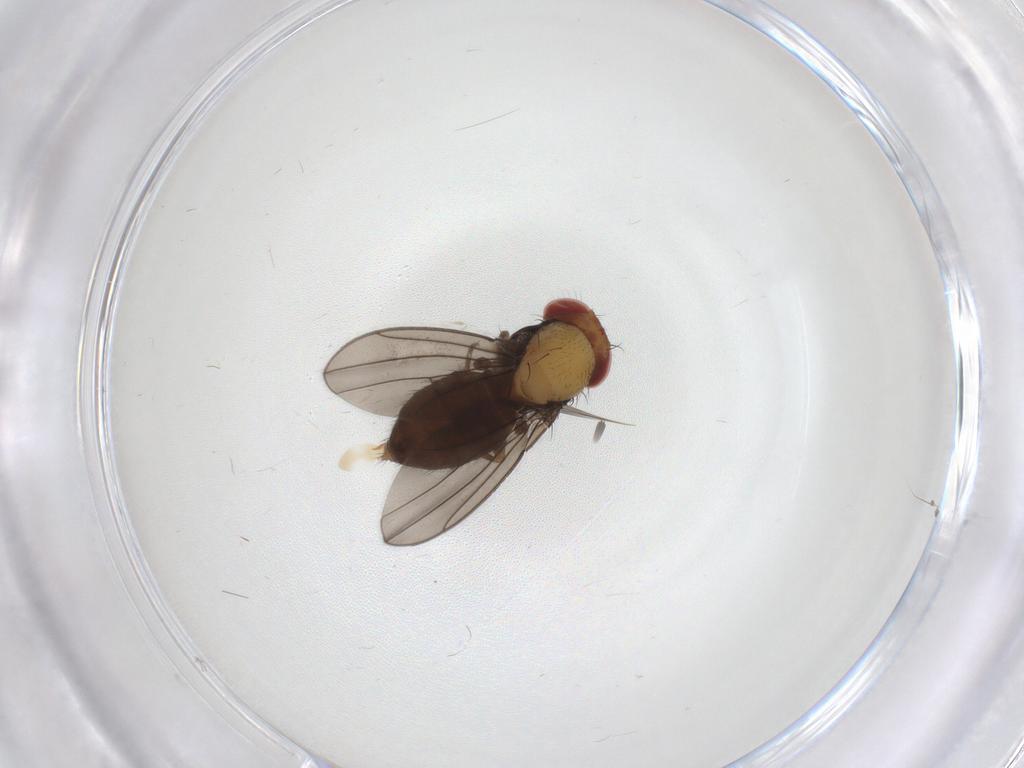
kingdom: Animalia
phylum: Arthropoda
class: Insecta
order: Diptera
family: Drosophilidae
